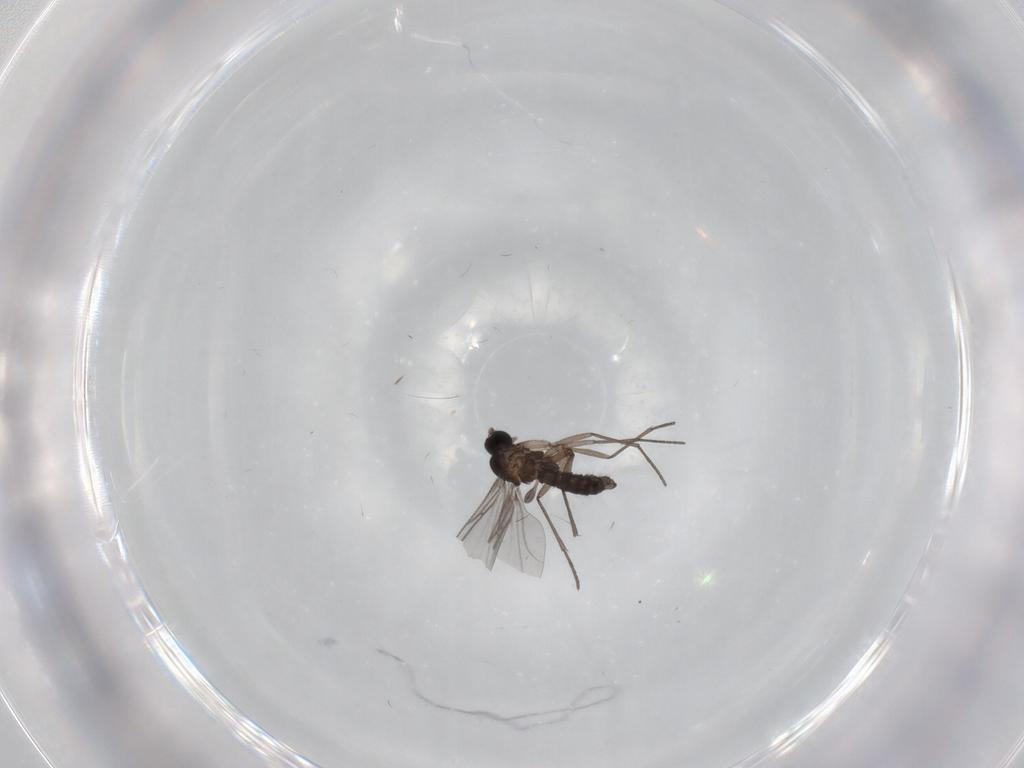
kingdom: Animalia
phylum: Arthropoda
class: Insecta
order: Diptera
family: Sciaridae
